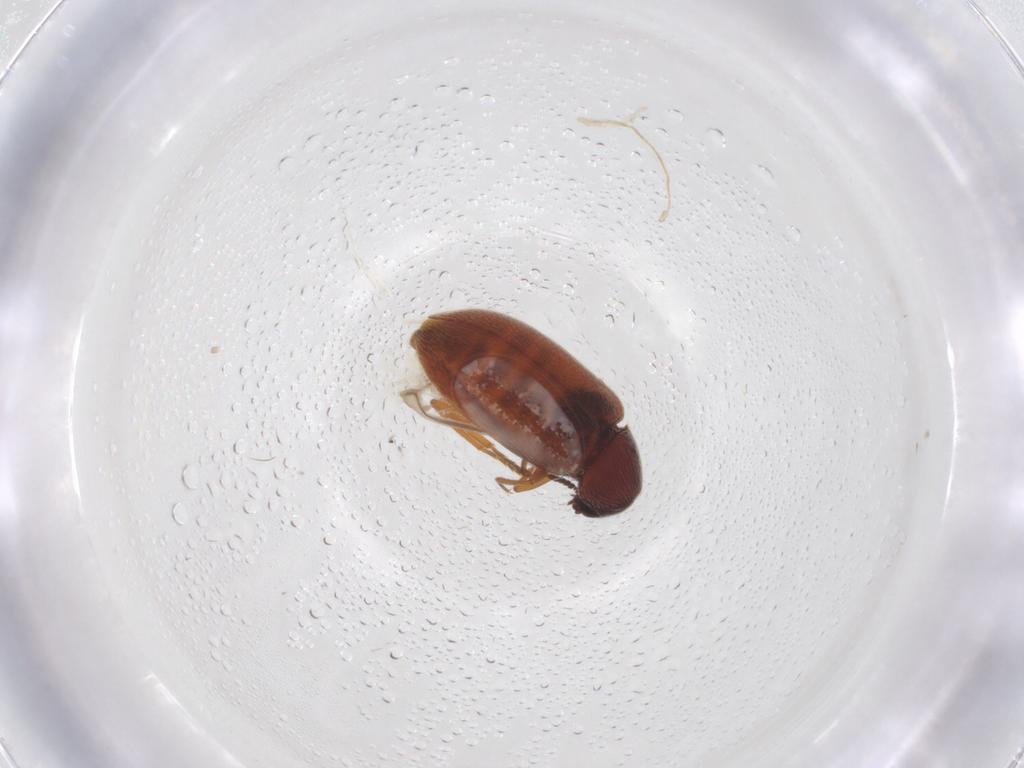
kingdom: Animalia
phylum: Arthropoda
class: Insecta
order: Coleoptera
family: Rhadalidae
